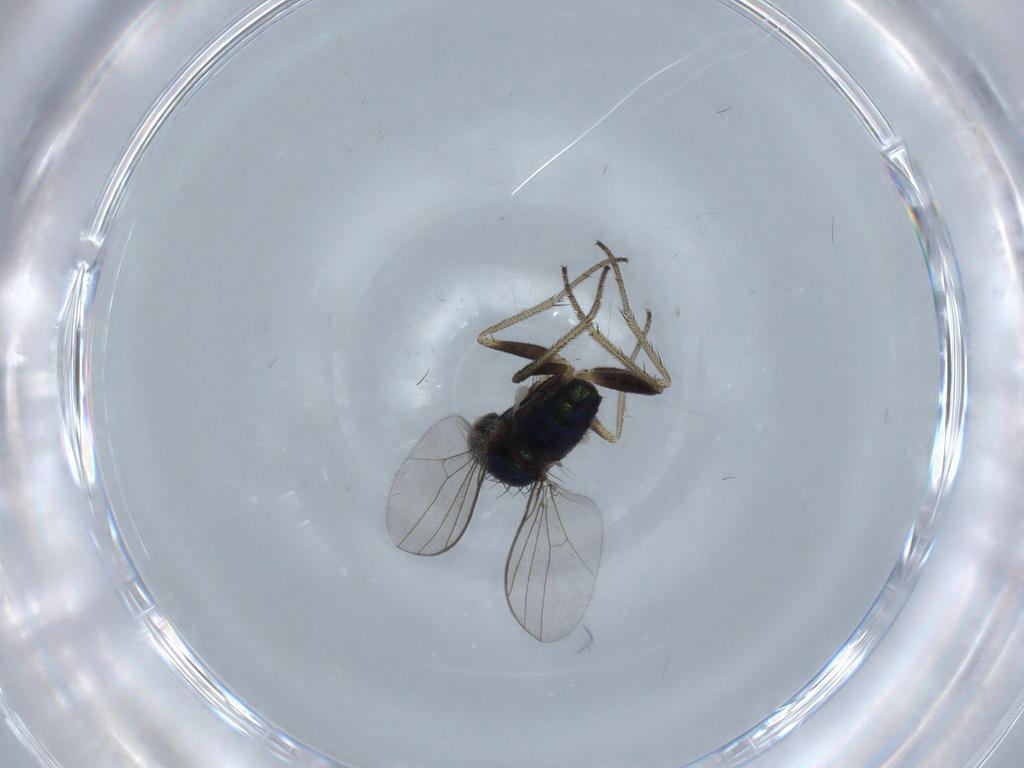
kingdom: Animalia
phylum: Arthropoda
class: Insecta
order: Diptera
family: Dolichopodidae
